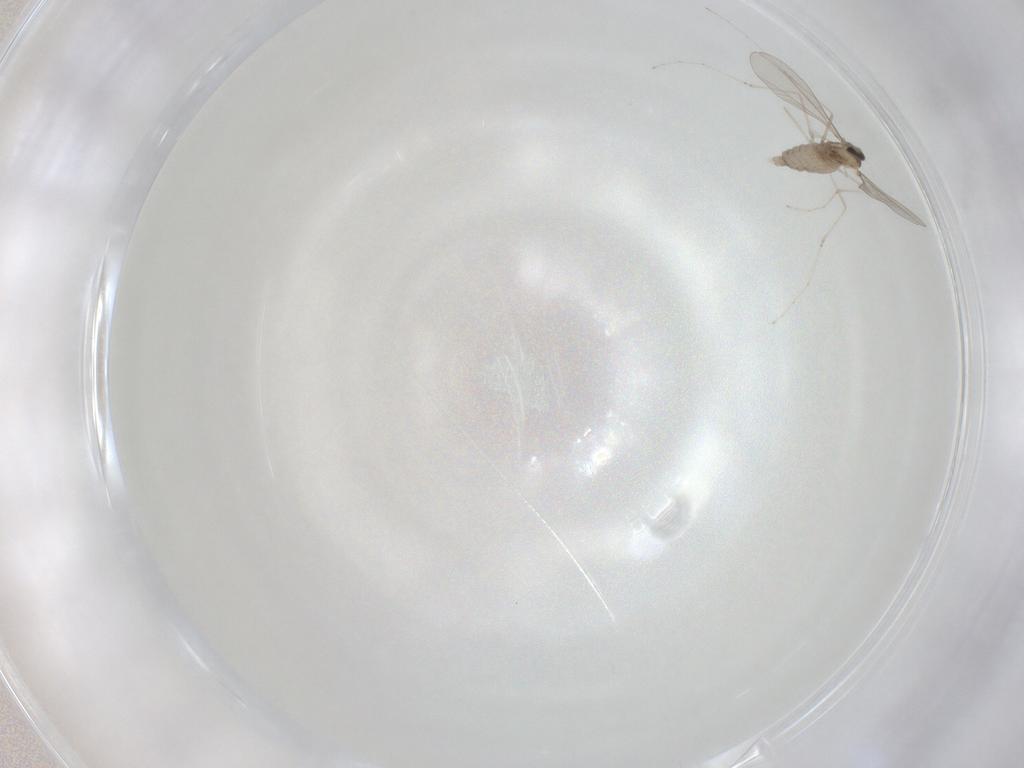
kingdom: Animalia
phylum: Arthropoda
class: Insecta
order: Diptera
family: Cecidomyiidae
